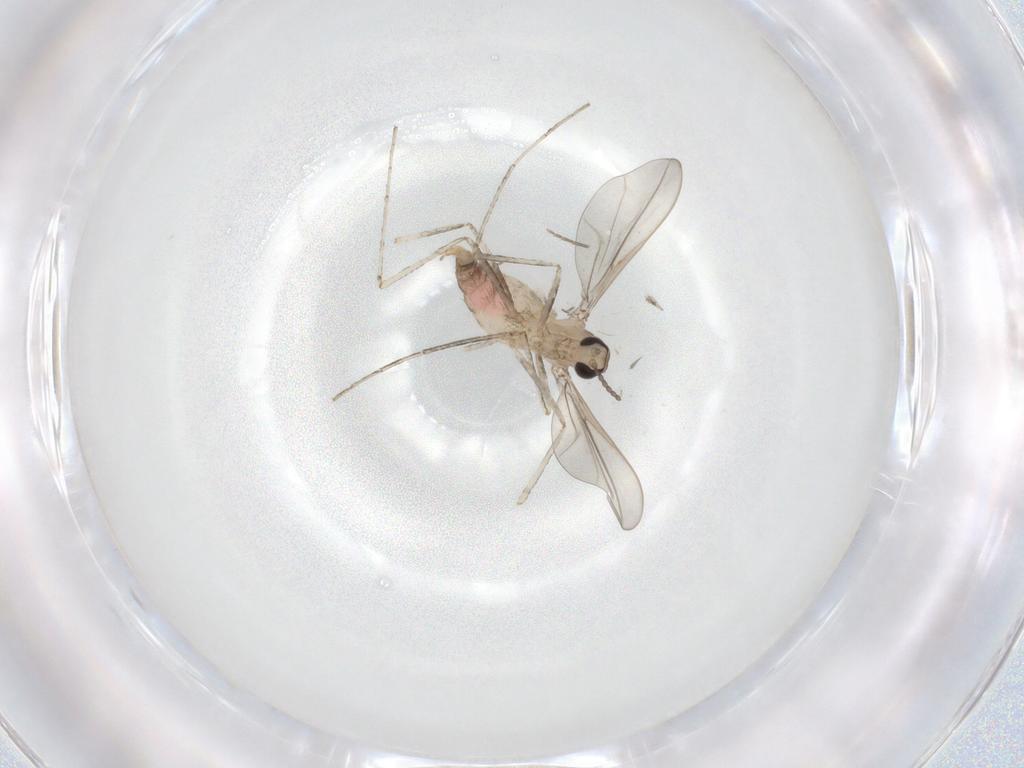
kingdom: Animalia
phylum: Arthropoda
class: Insecta
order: Diptera
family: Cecidomyiidae
